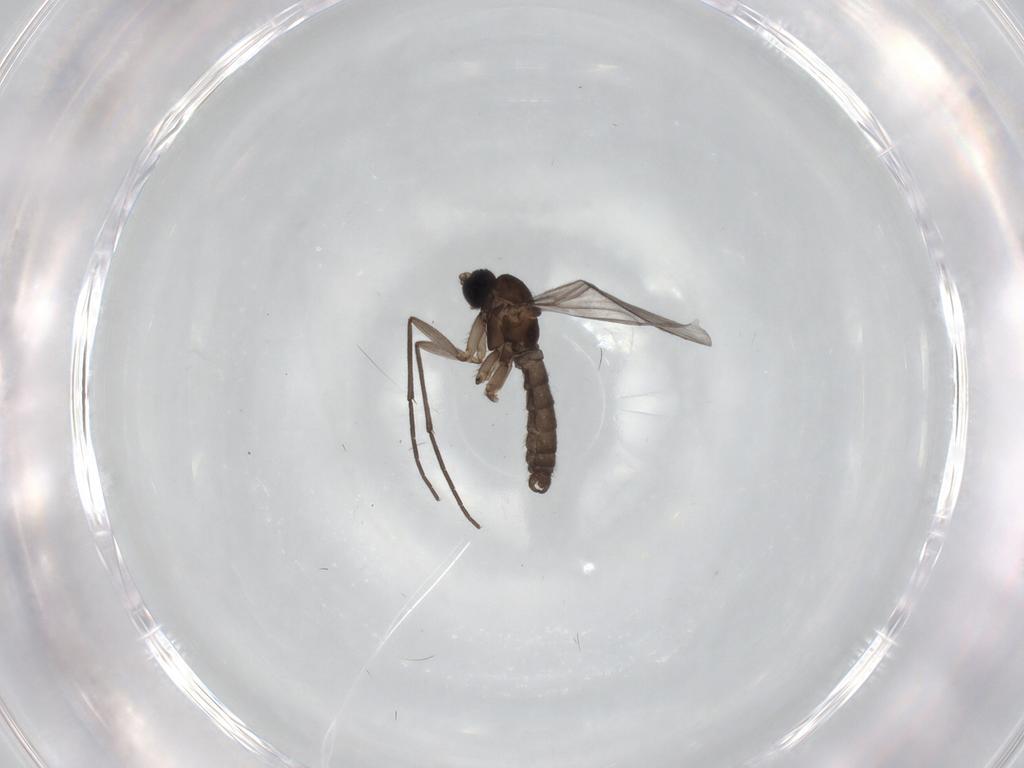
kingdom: Animalia
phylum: Arthropoda
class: Insecta
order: Diptera
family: Sciaridae
